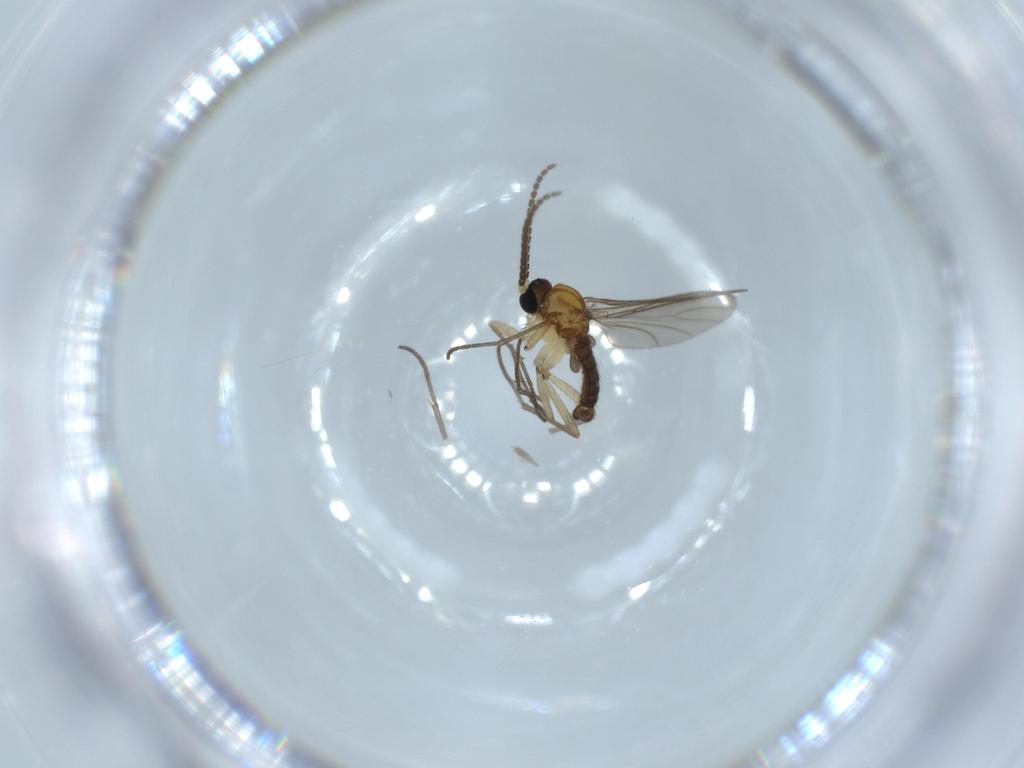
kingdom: Animalia
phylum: Arthropoda
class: Insecta
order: Diptera
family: Sciaridae
